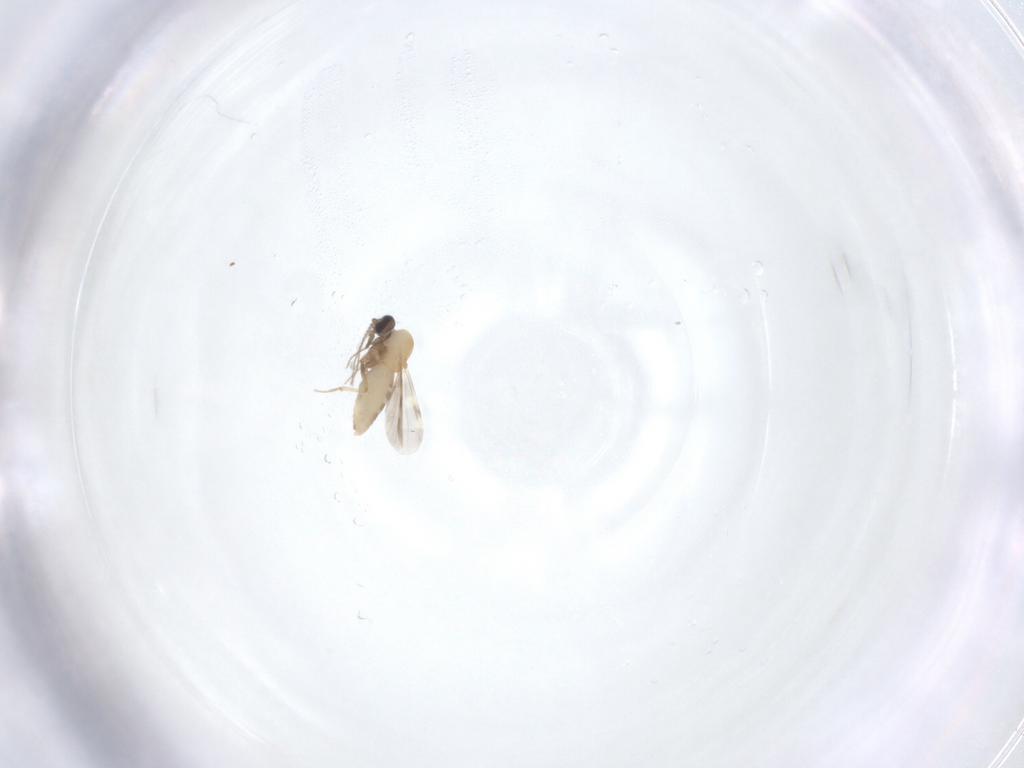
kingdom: Animalia
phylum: Arthropoda
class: Insecta
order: Diptera
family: Ceratopogonidae
